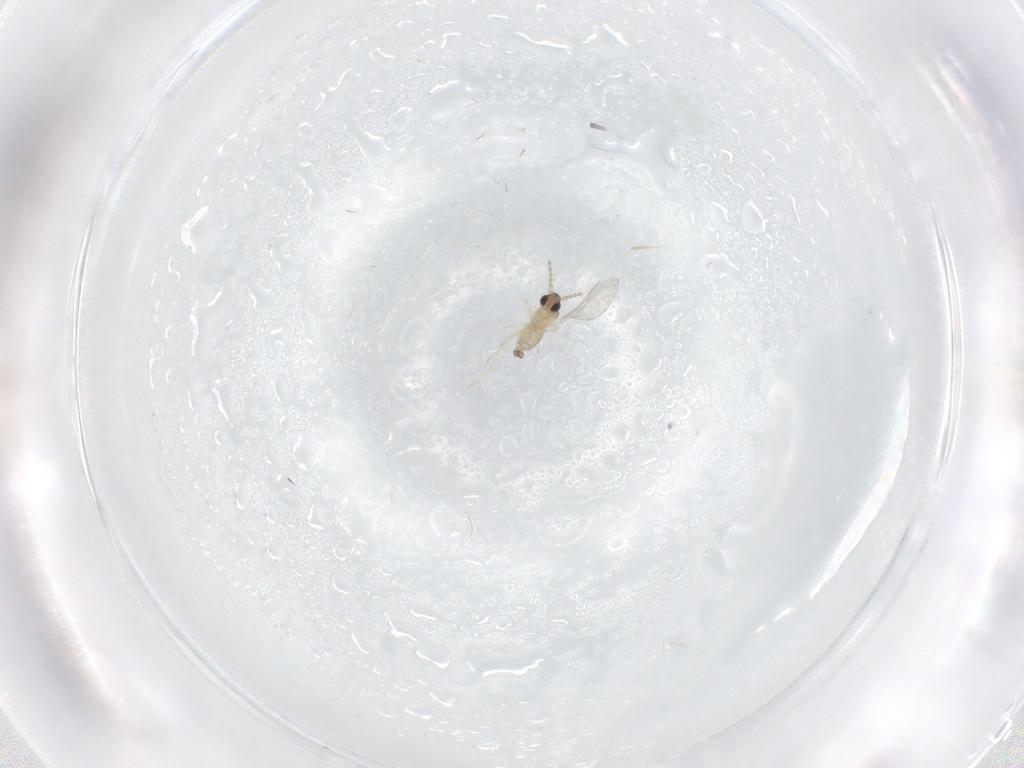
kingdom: Animalia
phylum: Arthropoda
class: Insecta
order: Diptera
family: Cecidomyiidae
